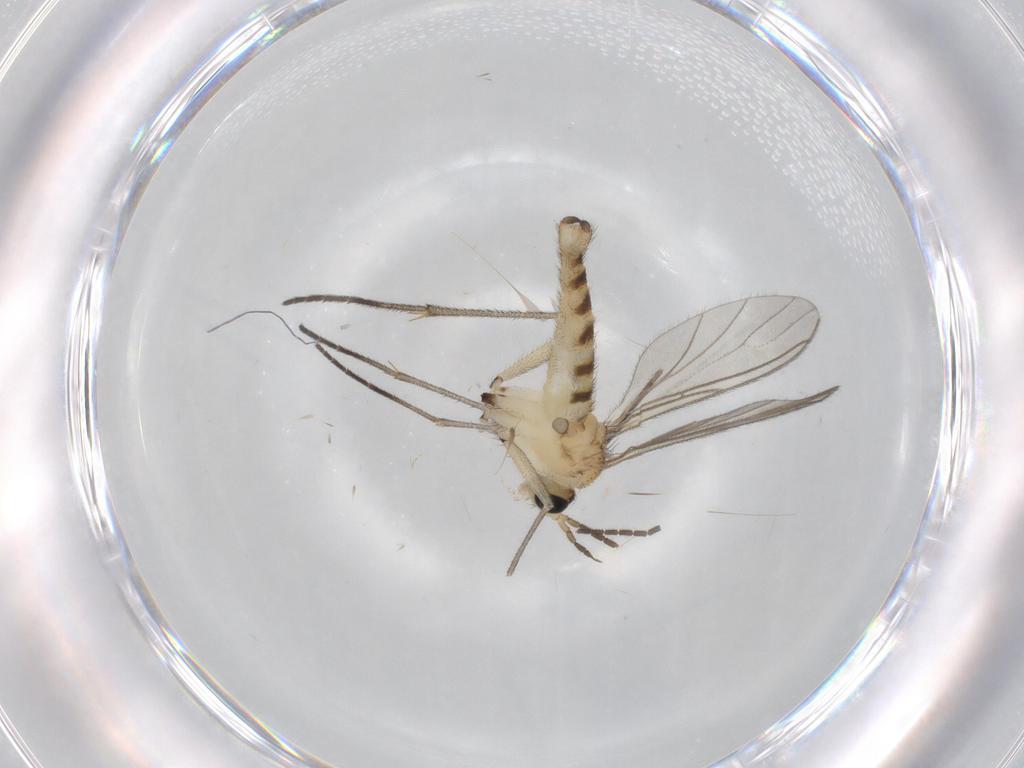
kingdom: Animalia
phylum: Arthropoda
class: Insecta
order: Diptera
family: Sciaridae
